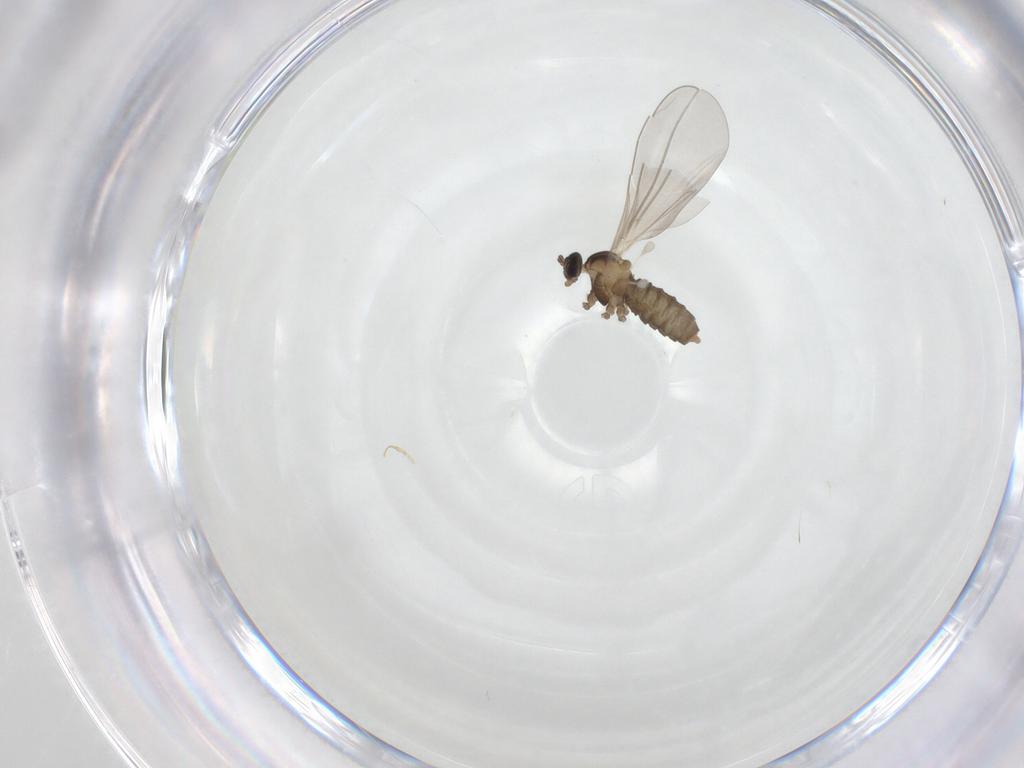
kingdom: Animalia
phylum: Arthropoda
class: Insecta
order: Diptera
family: Cecidomyiidae
